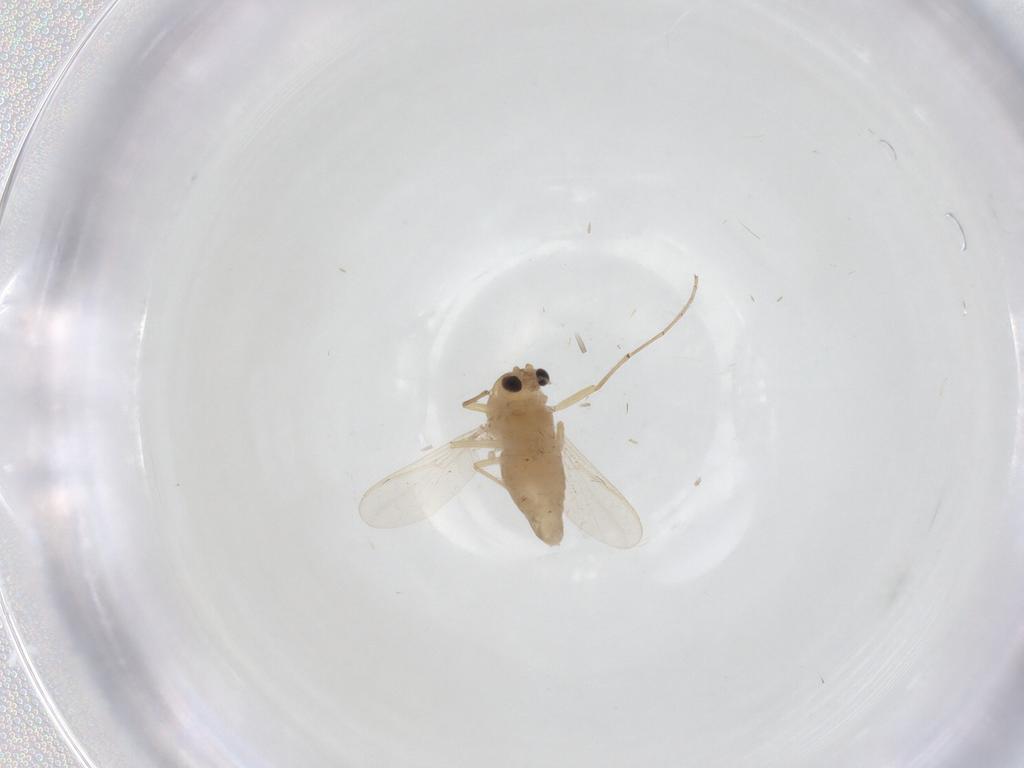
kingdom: Animalia
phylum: Arthropoda
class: Insecta
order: Diptera
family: Chironomidae
